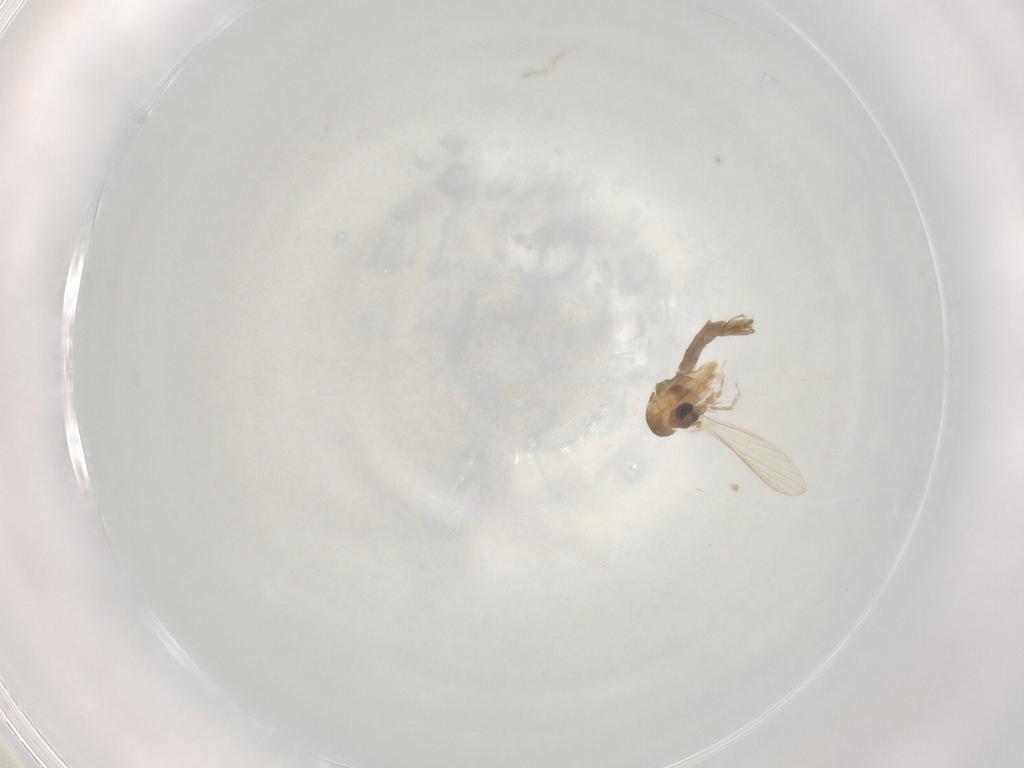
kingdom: Animalia
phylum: Arthropoda
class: Insecta
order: Diptera
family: Psychodidae
